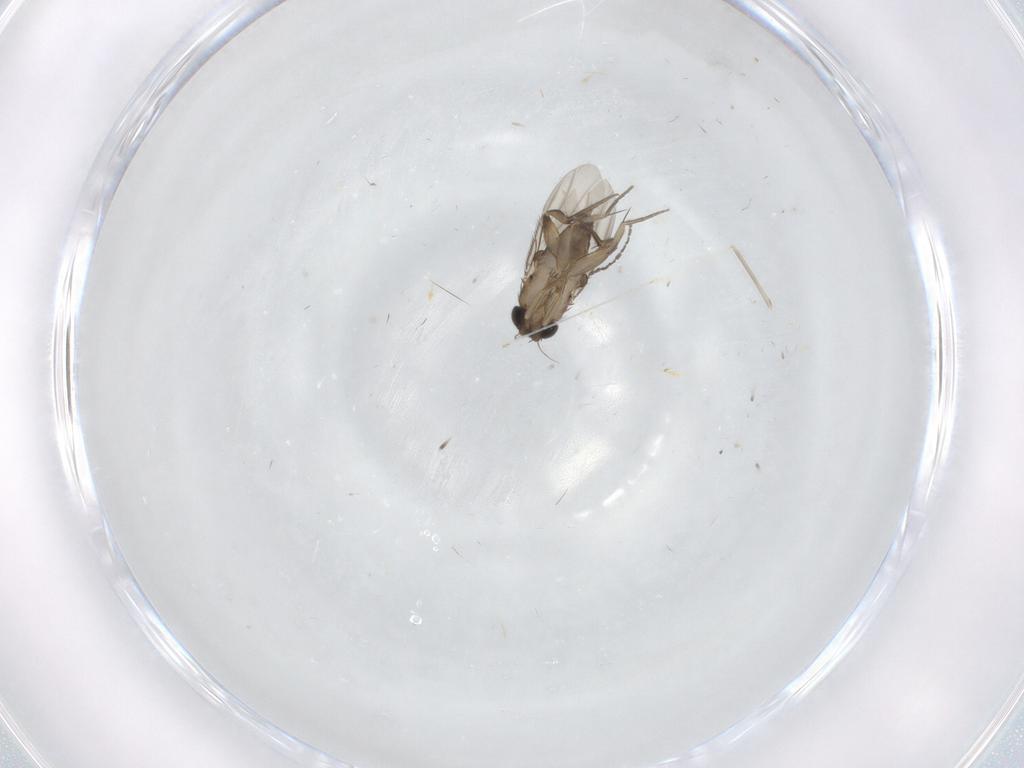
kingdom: Animalia
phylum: Arthropoda
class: Insecta
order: Diptera
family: Phoridae
